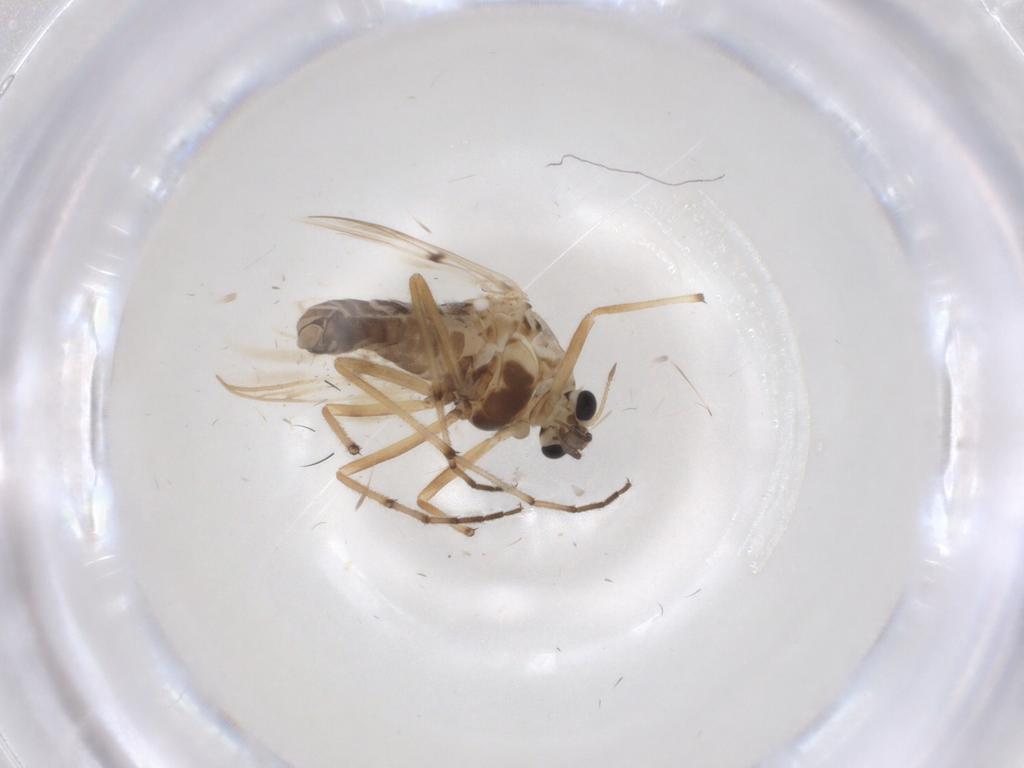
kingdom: Animalia
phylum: Arthropoda
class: Insecta
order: Diptera
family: Chironomidae
